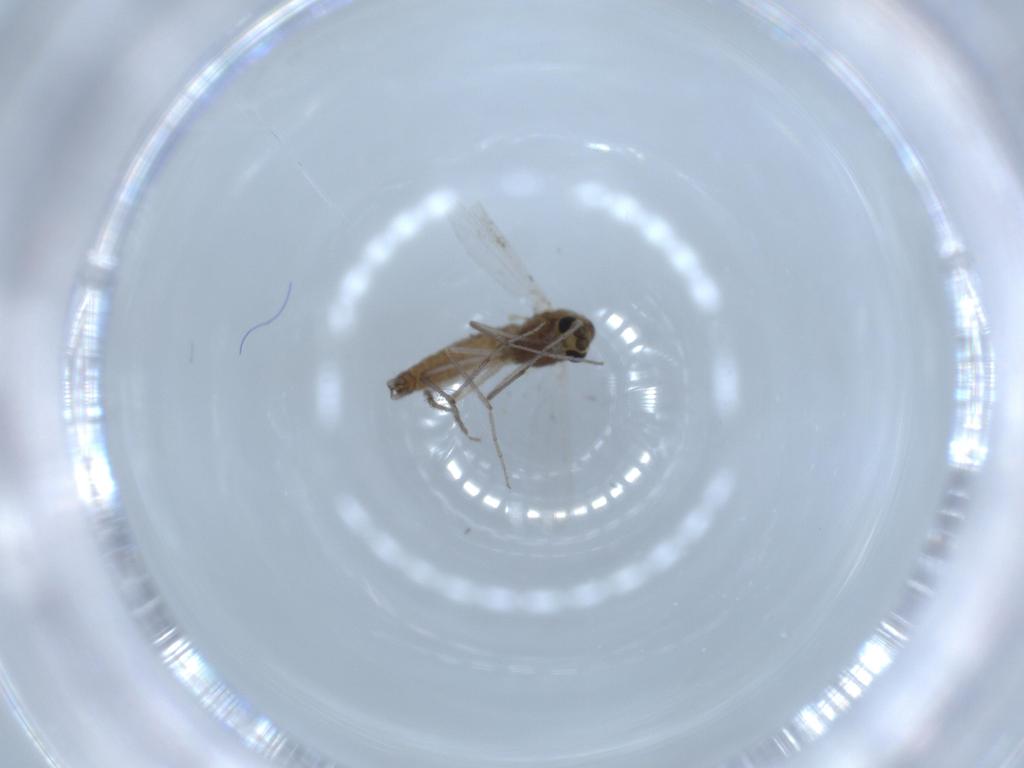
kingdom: Animalia
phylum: Arthropoda
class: Insecta
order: Diptera
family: Chironomidae
